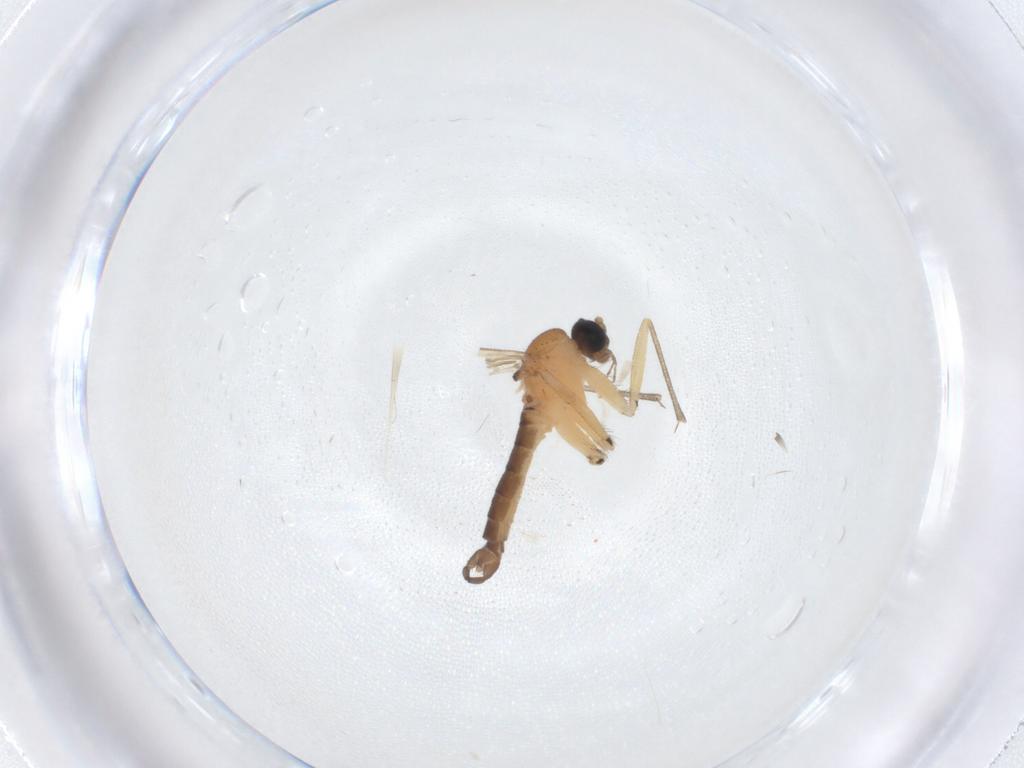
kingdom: Animalia
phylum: Arthropoda
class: Insecta
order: Diptera
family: Sciaridae
